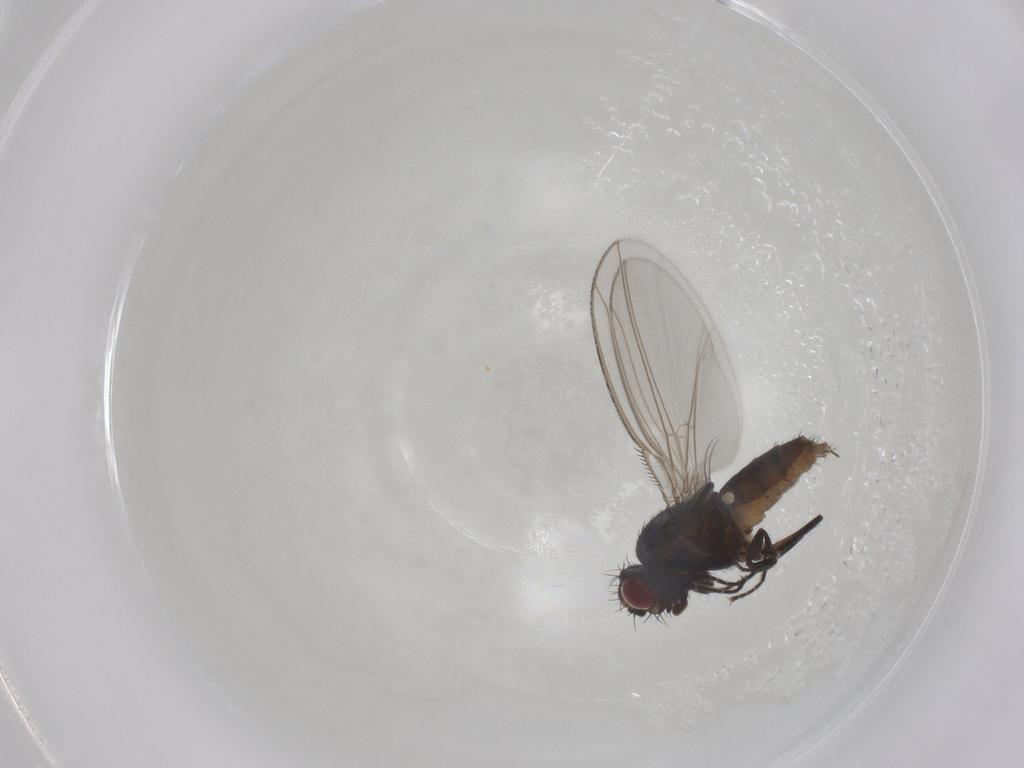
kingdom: Animalia
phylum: Arthropoda
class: Insecta
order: Diptera
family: Carnidae
